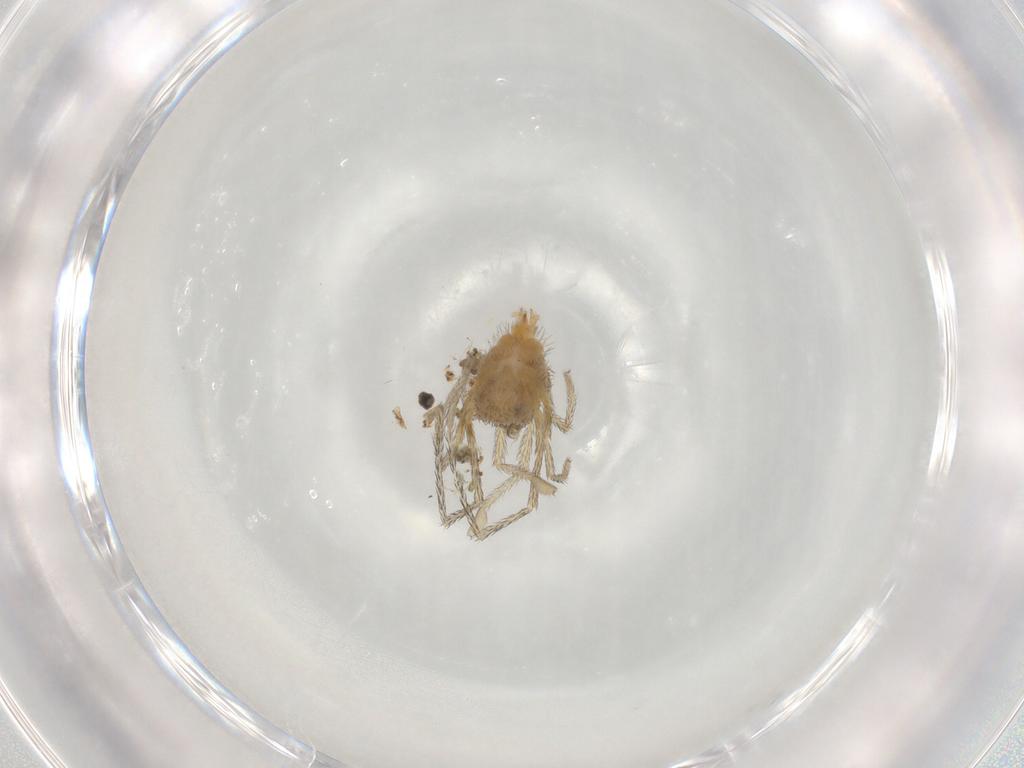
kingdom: Animalia
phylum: Arthropoda
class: Arachnida
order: Trombidiformes
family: Erythraeidae
